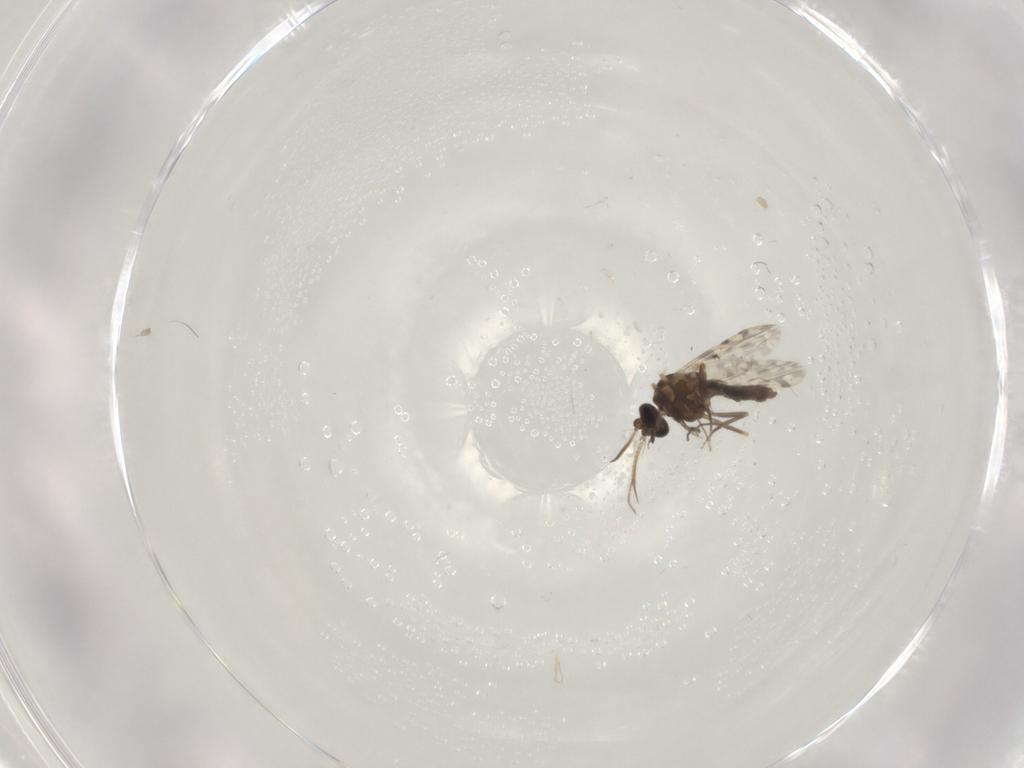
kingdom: Animalia
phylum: Arthropoda
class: Insecta
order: Diptera
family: Ceratopogonidae
